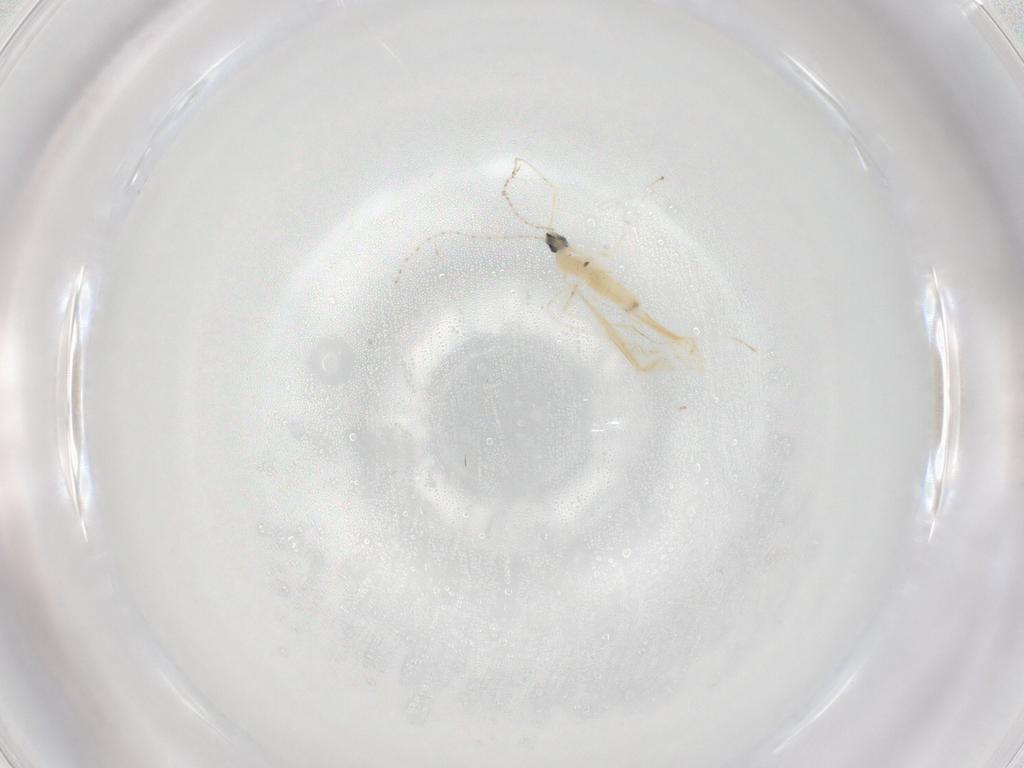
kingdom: Animalia
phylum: Arthropoda
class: Insecta
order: Diptera
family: Cecidomyiidae
